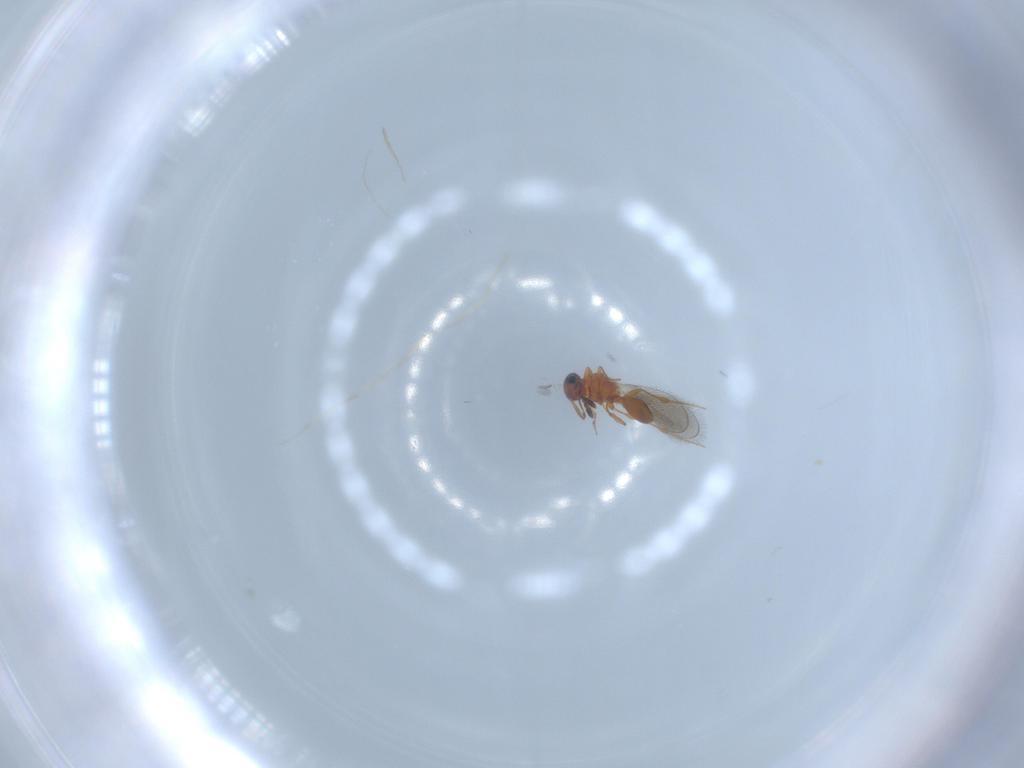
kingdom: Animalia
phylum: Arthropoda
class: Insecta
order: Hymenoptera
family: Platygastridae
